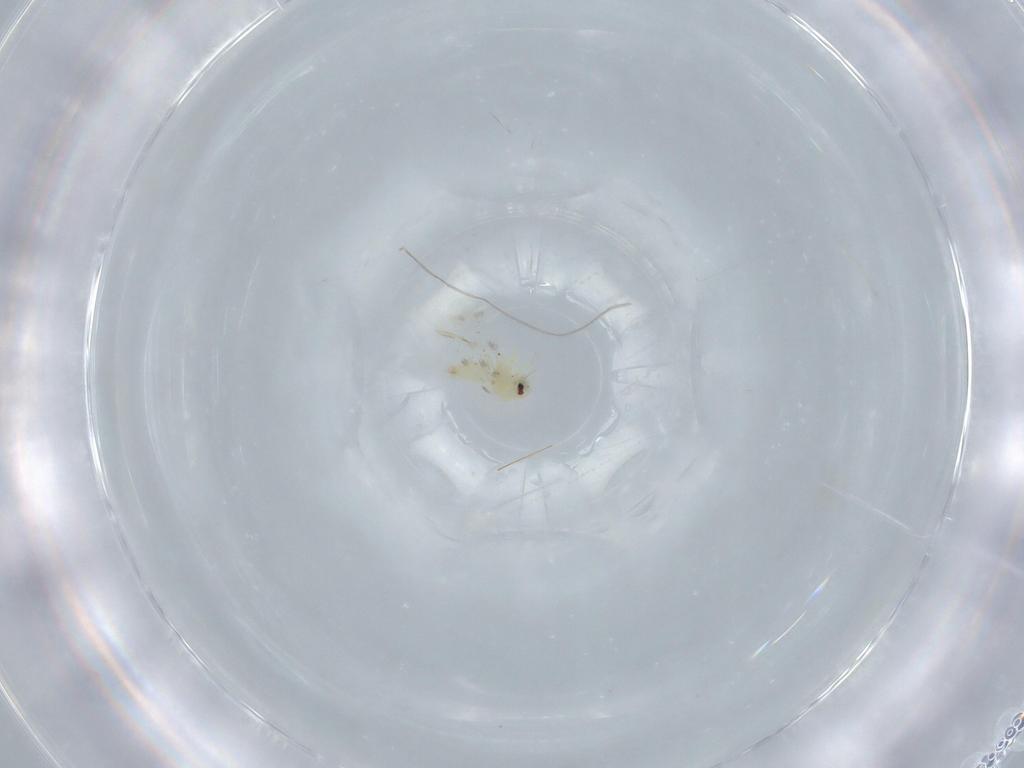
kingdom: Animalia
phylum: Arthropoda
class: Insecta
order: Hemiptera
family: Aleyrodidae
